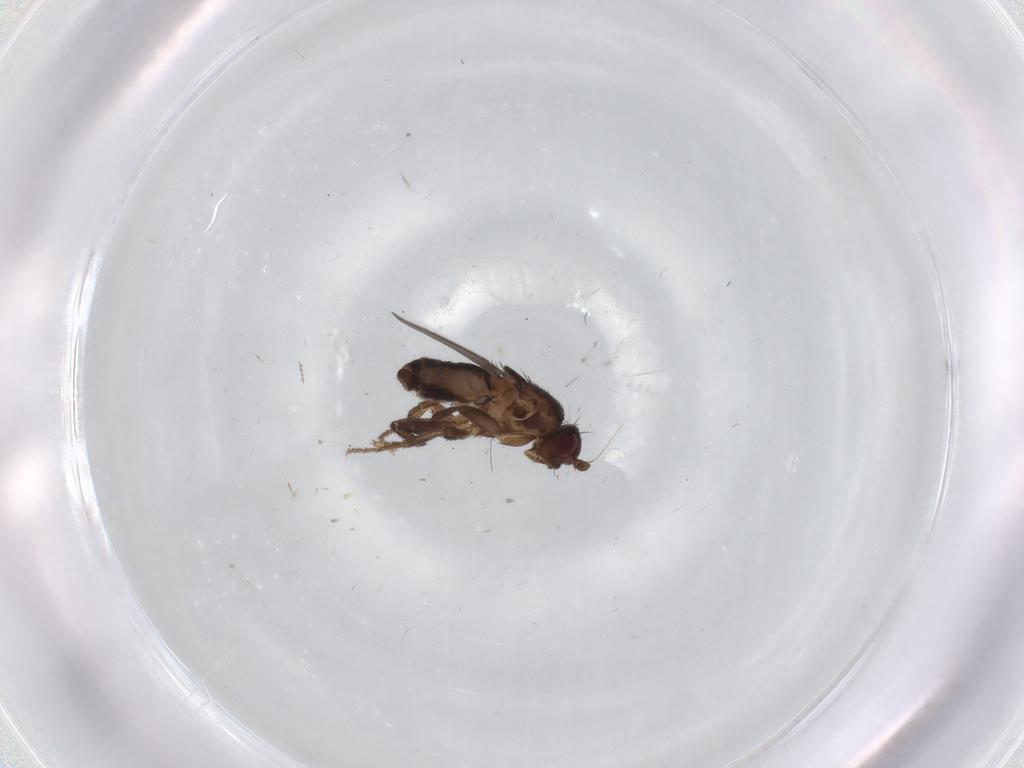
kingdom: Animalia
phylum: Arthropoda
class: Insecta
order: Diptera
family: Sphaeroceridae
